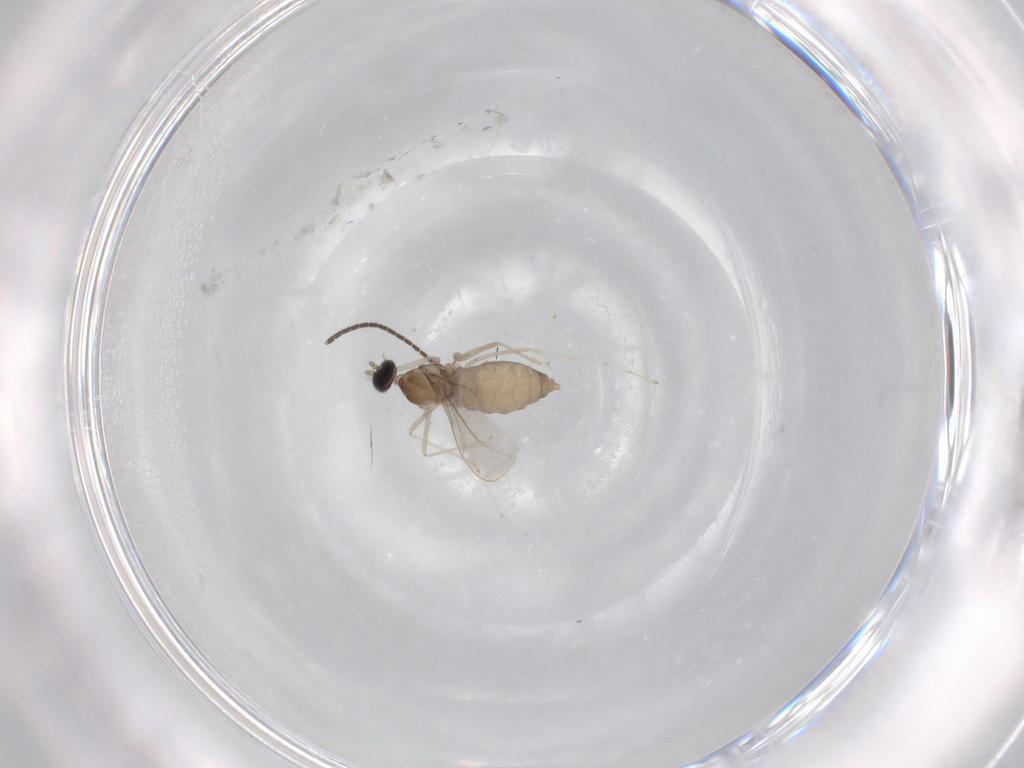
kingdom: Animalia
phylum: Arthropoda
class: Insecta
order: Diptera
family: Cecidomyiidae
